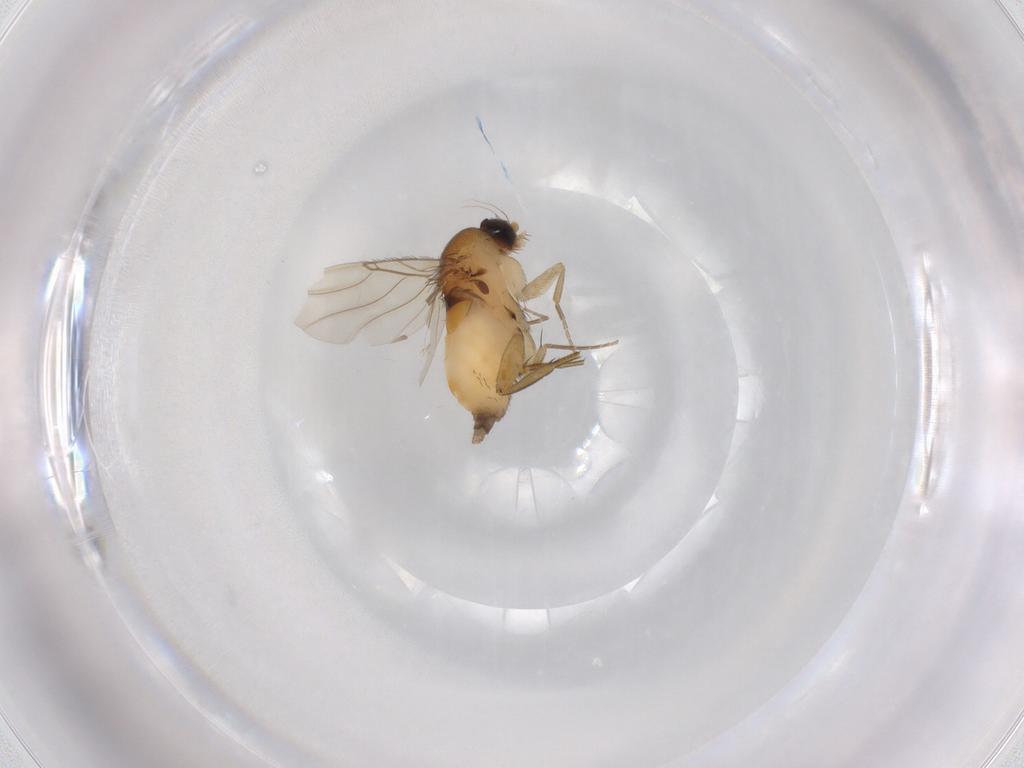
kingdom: Animalia
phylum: Arthropoda
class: Insecta
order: Diptera
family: Phoridae
